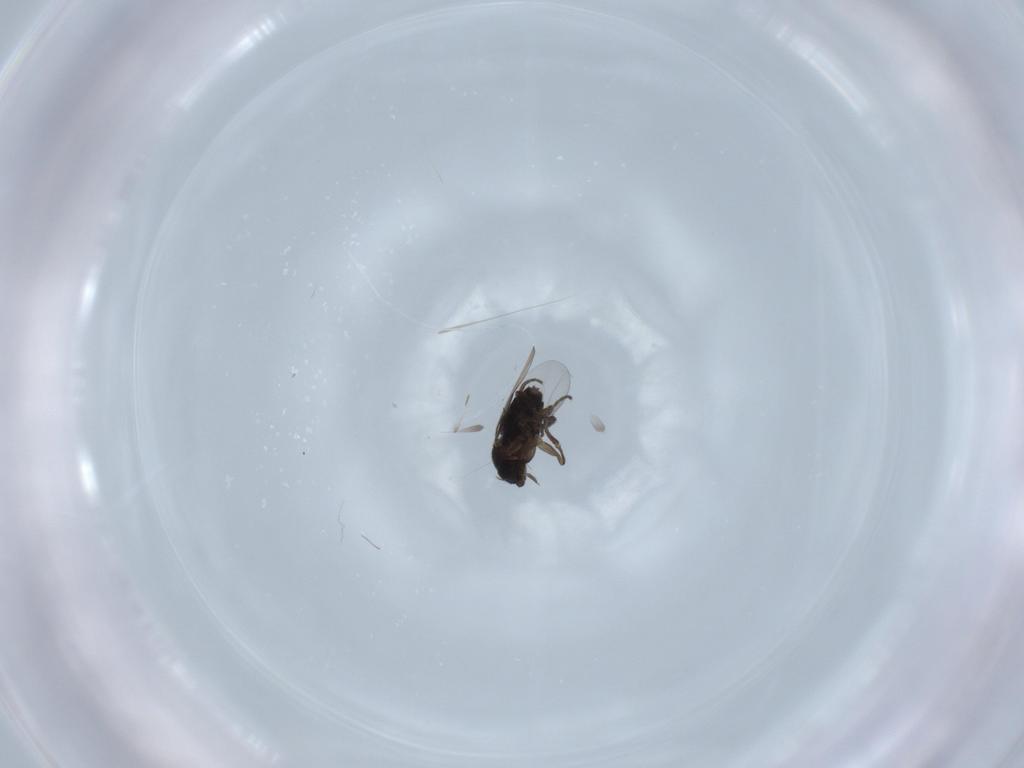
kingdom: Animalia
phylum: Arthropoda
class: Insecta
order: Diptera
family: Phoridae
